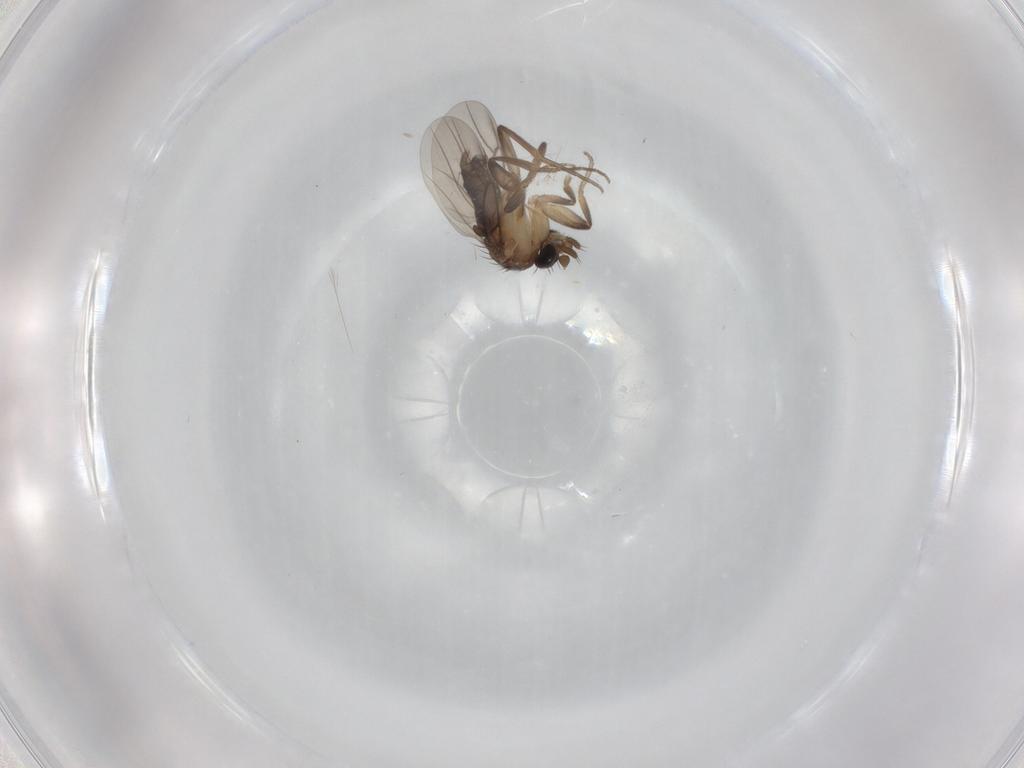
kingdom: Animalia
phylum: Arthropoda
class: Insecta
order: Diptera
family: Phoridae
